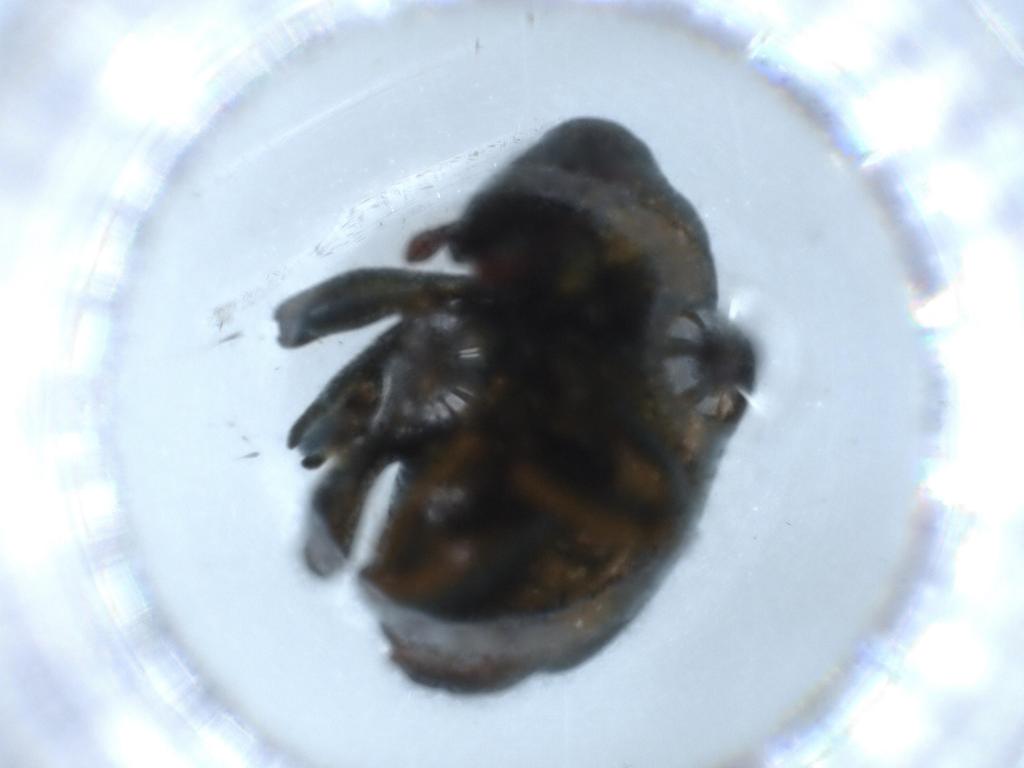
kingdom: Animalia
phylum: Arthropoda
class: Insecta
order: Coleoptera
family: Lycidae
